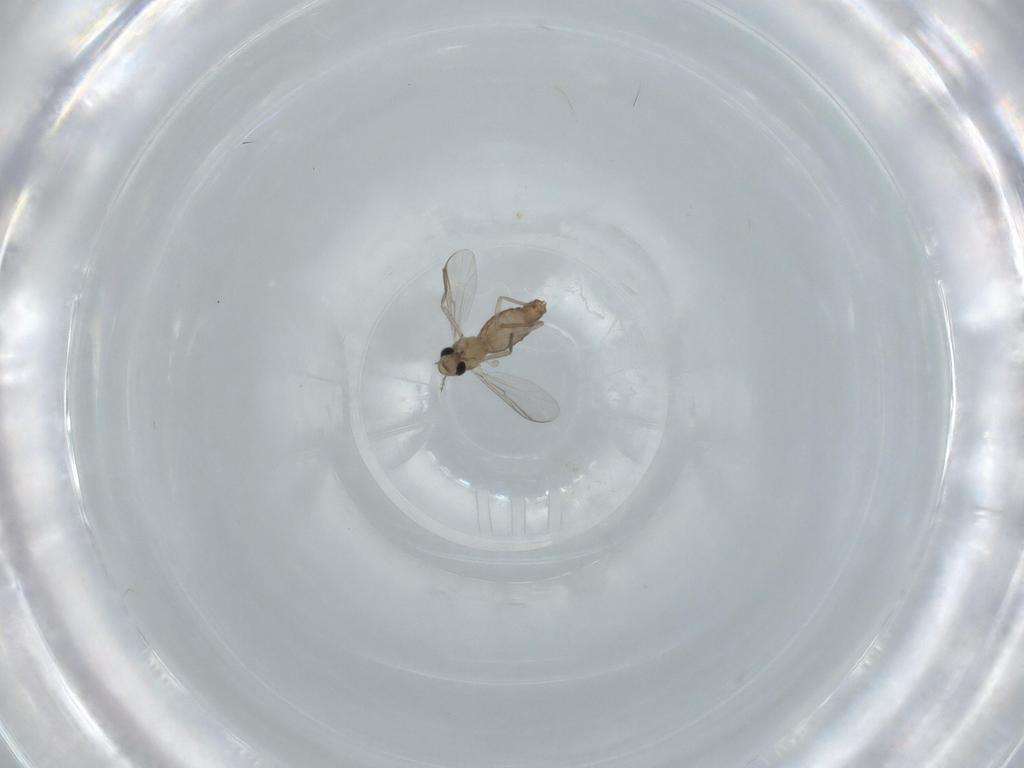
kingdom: Animalia
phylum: Arthropoda
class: Insecta
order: Diptera
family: Chironomidae
